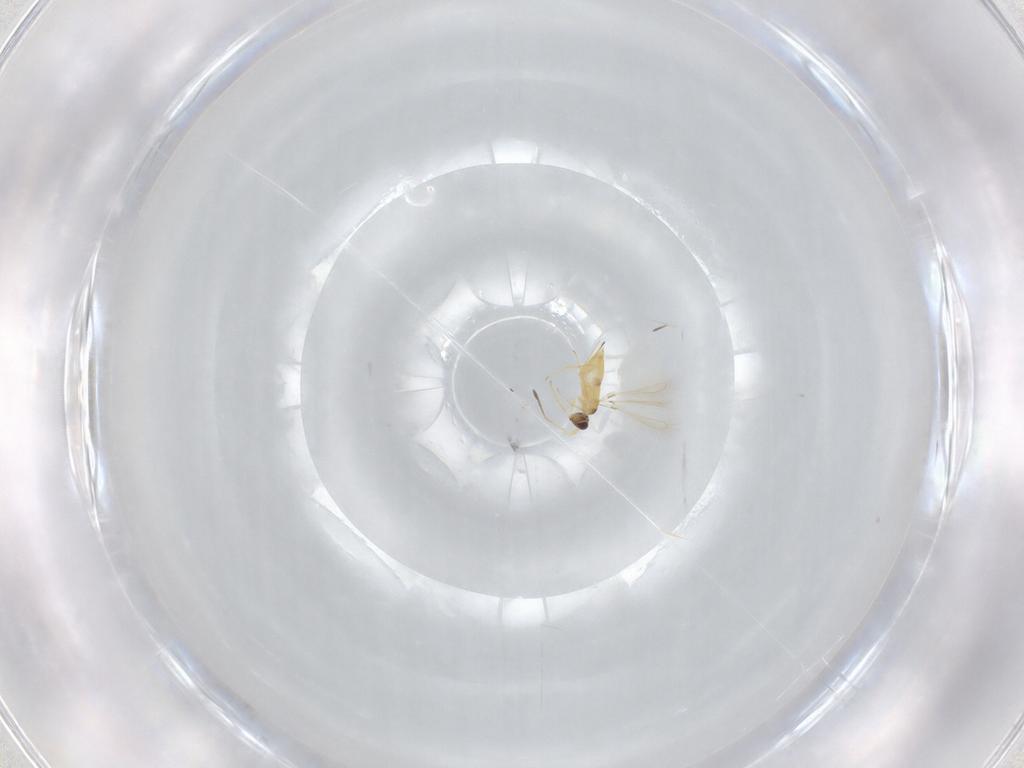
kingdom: Animalia
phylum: Arthropoda
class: Insecta
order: Hymenoptera
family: Mymaridae
